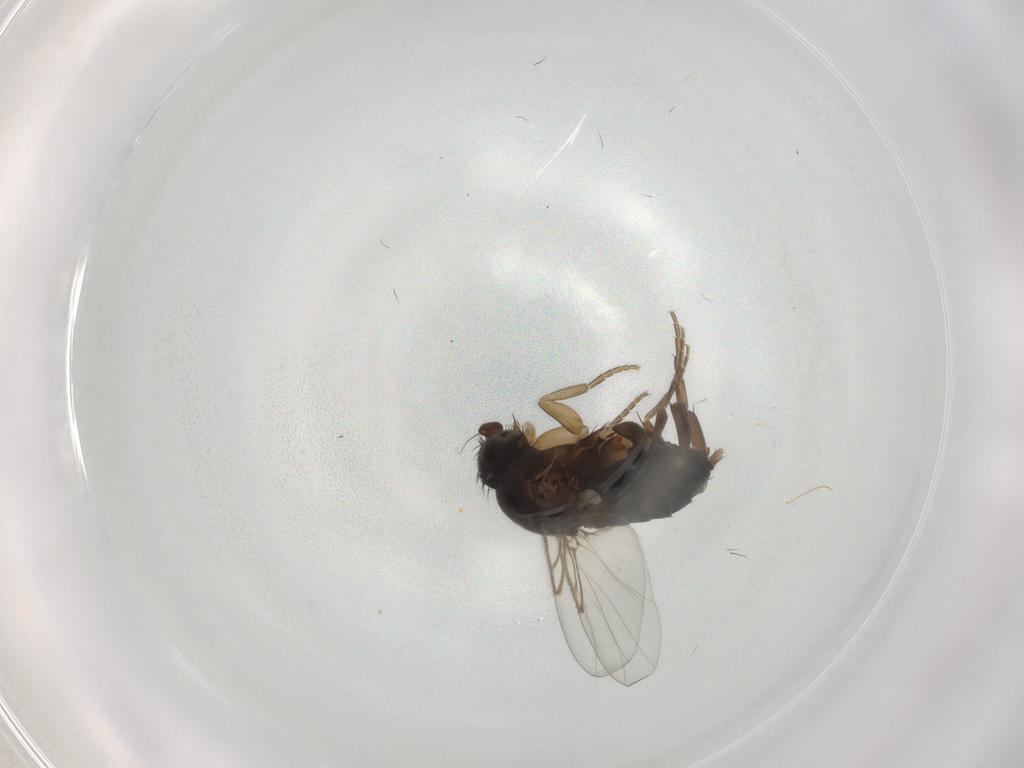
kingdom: Animalia
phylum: Arthropoda
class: Insecta
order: Diptera
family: Phoridae
